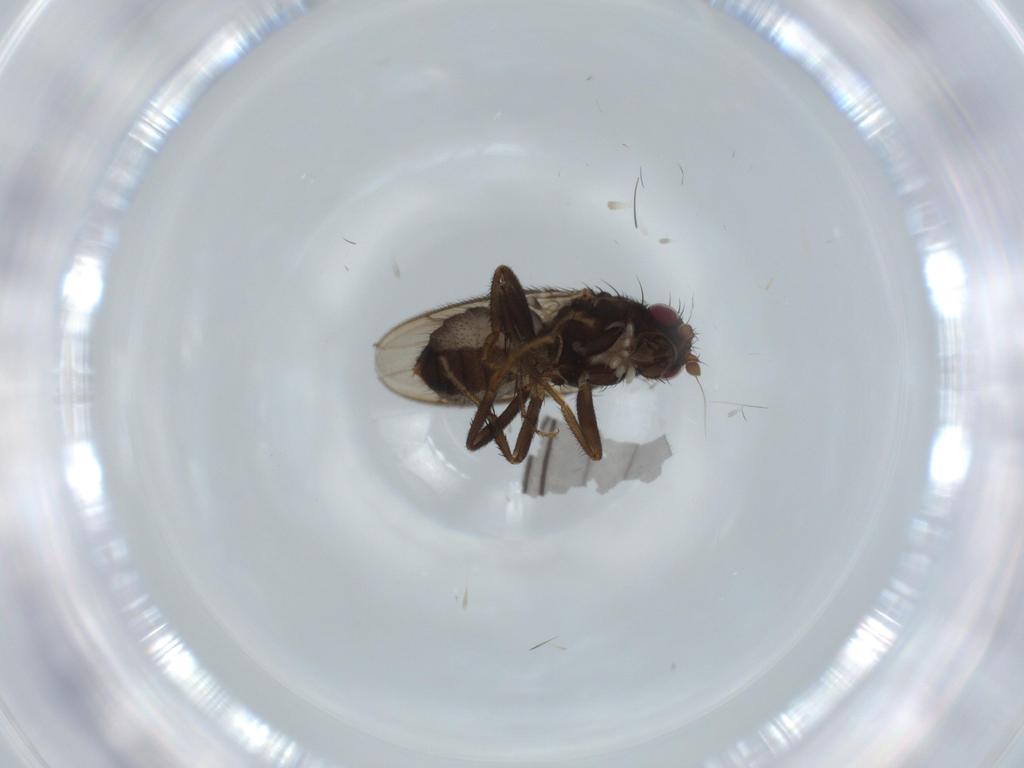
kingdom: Animalia
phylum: Arthropoda
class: Insecta
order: Diptera
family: Sphaeroceridae
